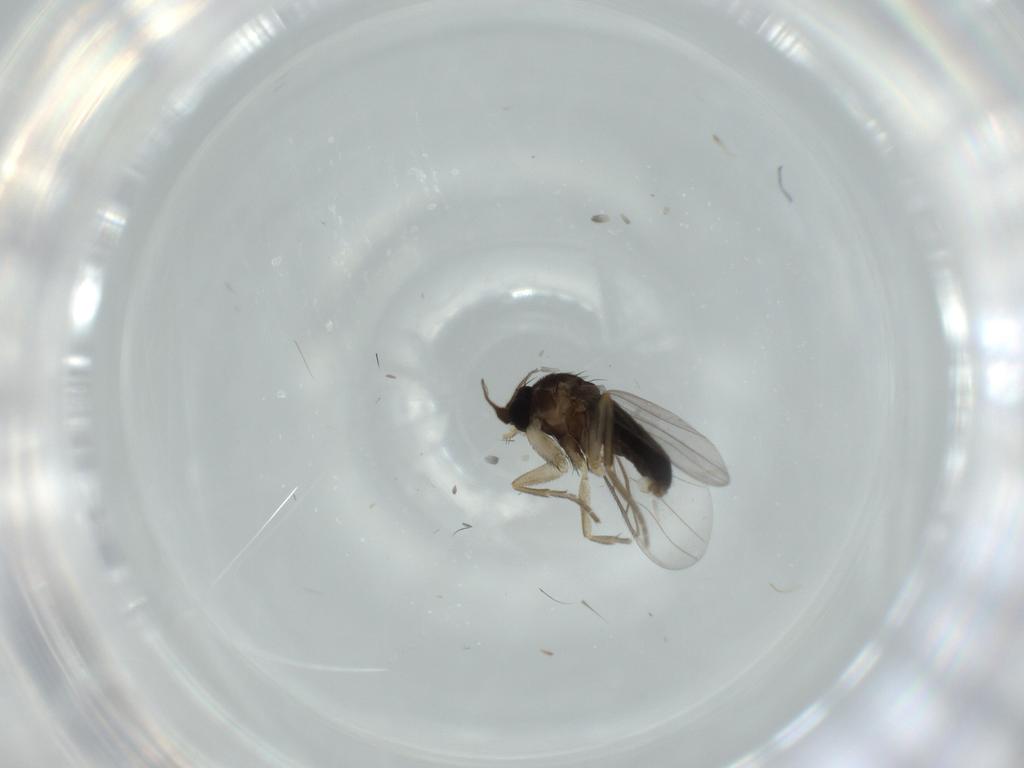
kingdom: Animalia
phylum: Arthropoda
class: Insecta
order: Diptera
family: Phoridae
